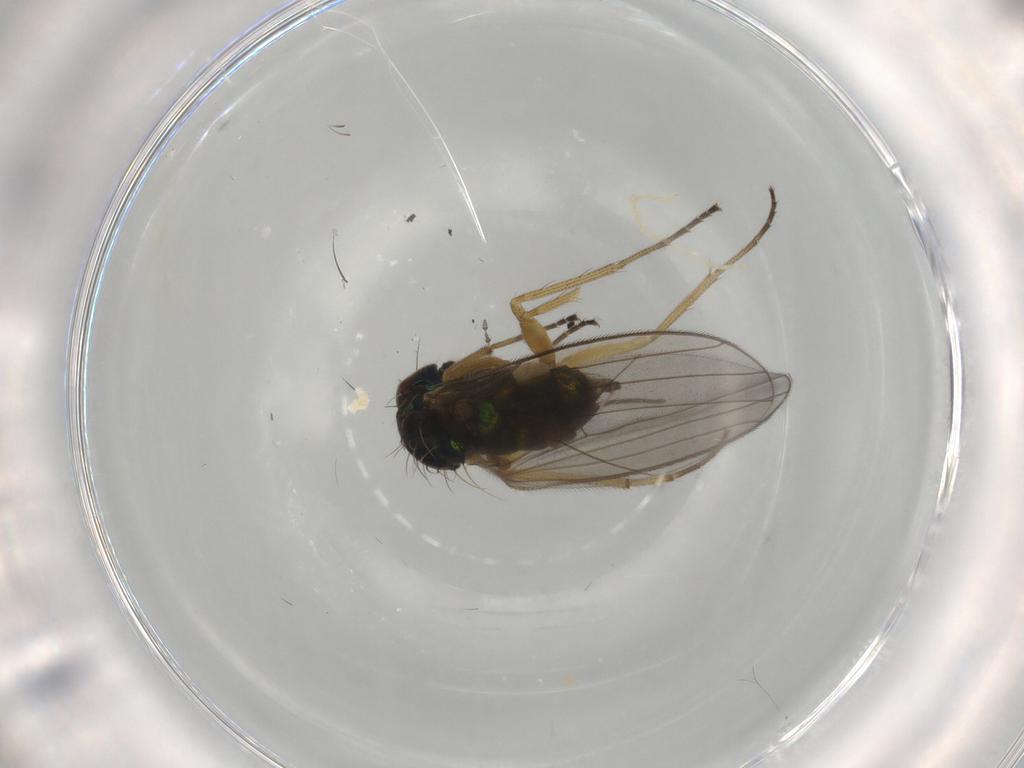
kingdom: Animalia
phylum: Arthropoda
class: Insecta
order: Diptera
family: Dolichopodidae
